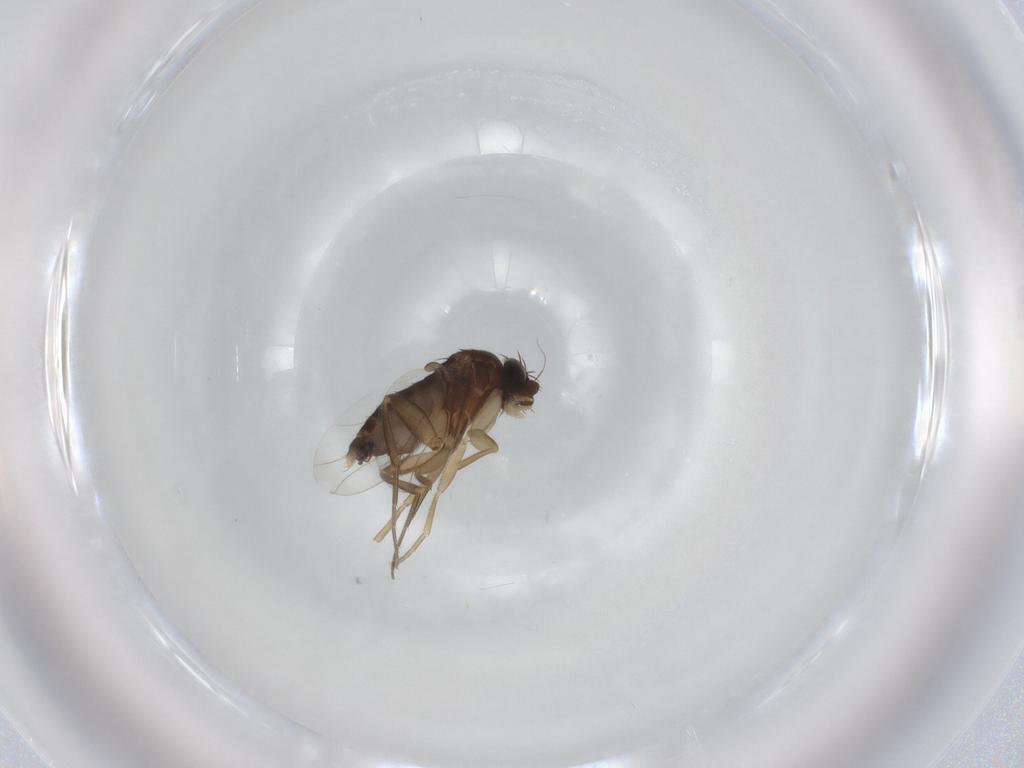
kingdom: Animalia
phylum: Arthropoda
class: Insecta
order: Diptera
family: Phoridae
